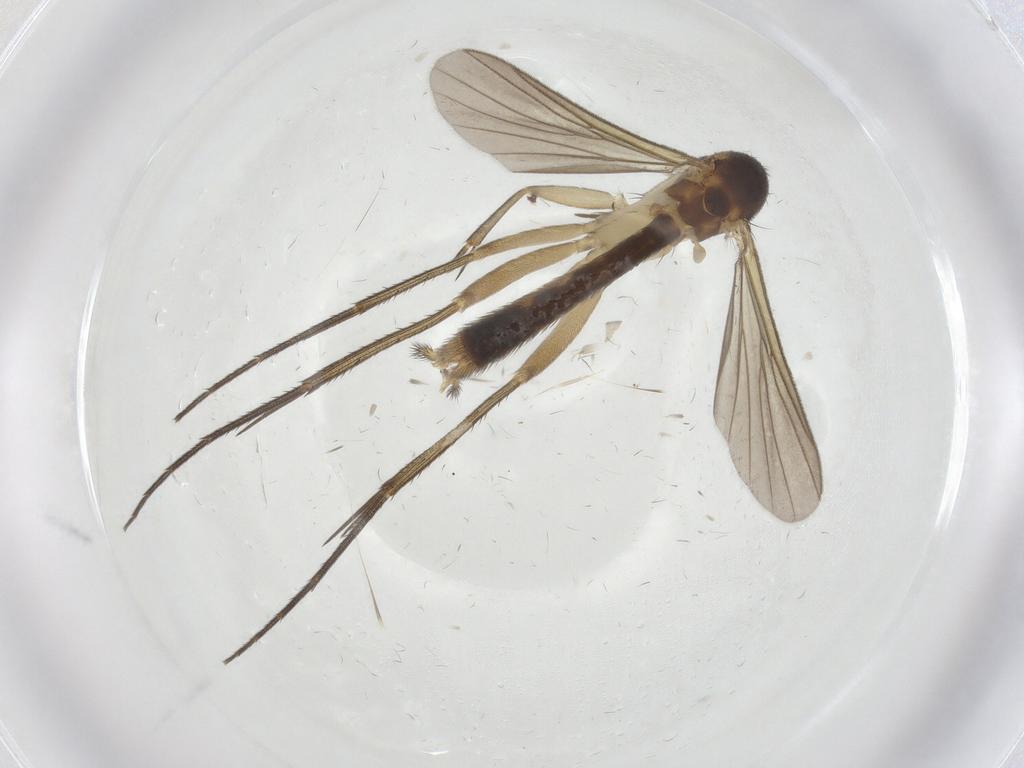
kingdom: Animalia
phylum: Arthropoda
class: Insecta
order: Diptera
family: Mycetophilidae
